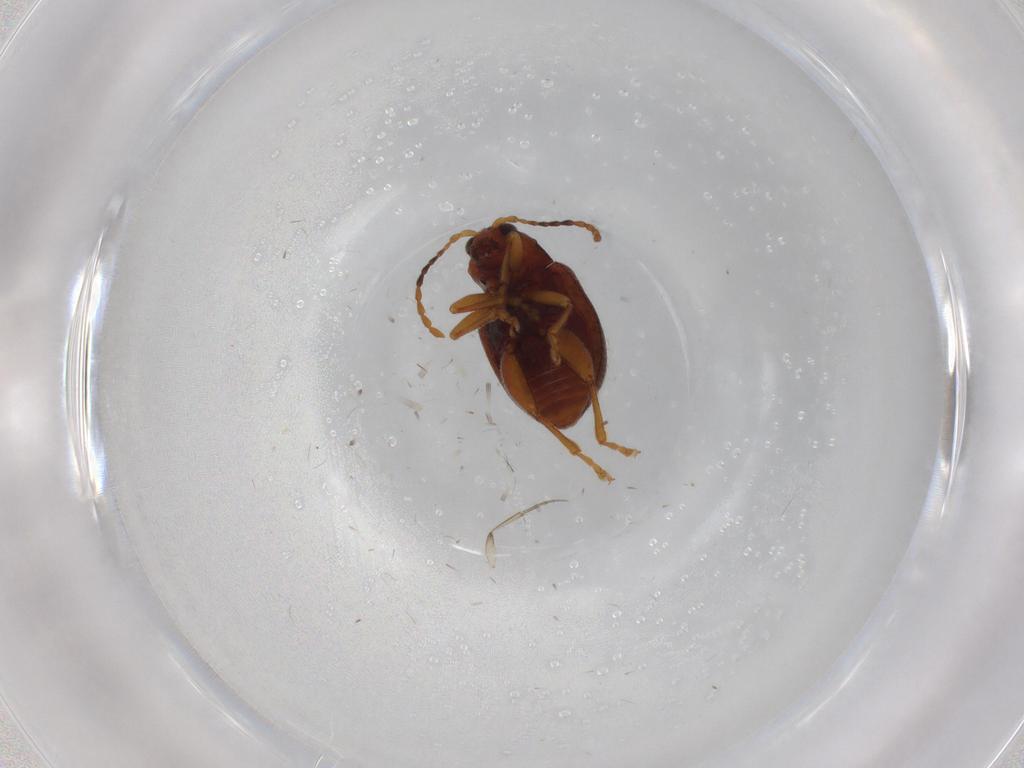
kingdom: Animalia
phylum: Arthropoda
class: Insecta
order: Coleoptera
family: Chrysomelidae
